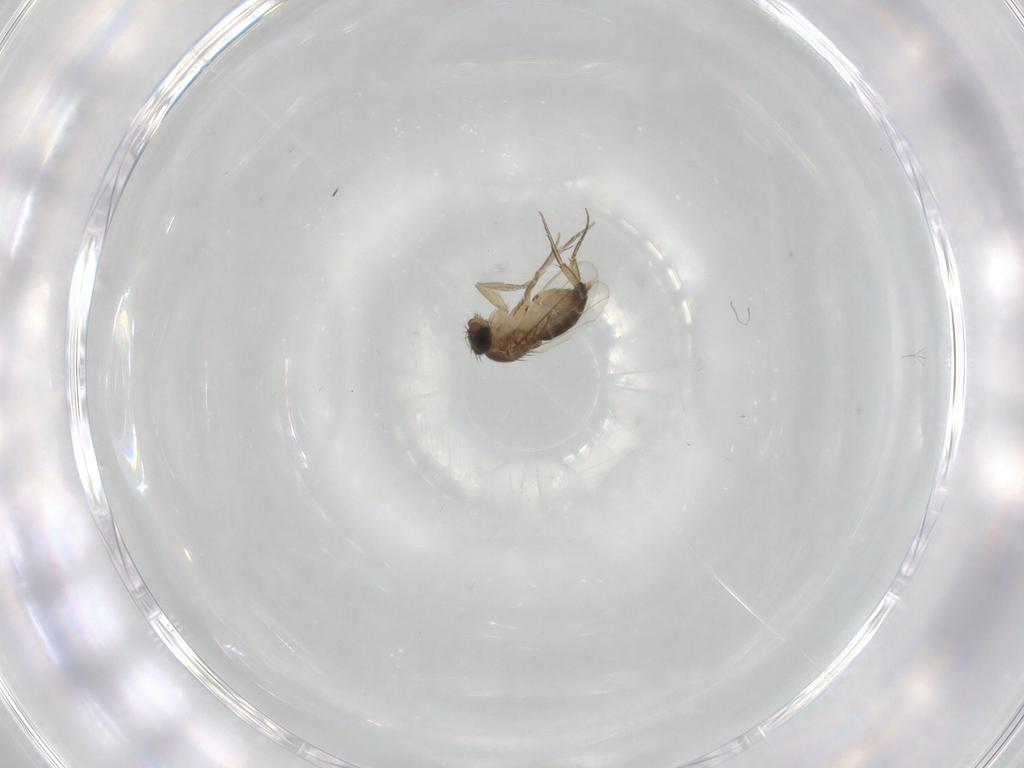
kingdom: Animalia
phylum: Arthropoda
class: Insecta
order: Diptera
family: Phoridae
